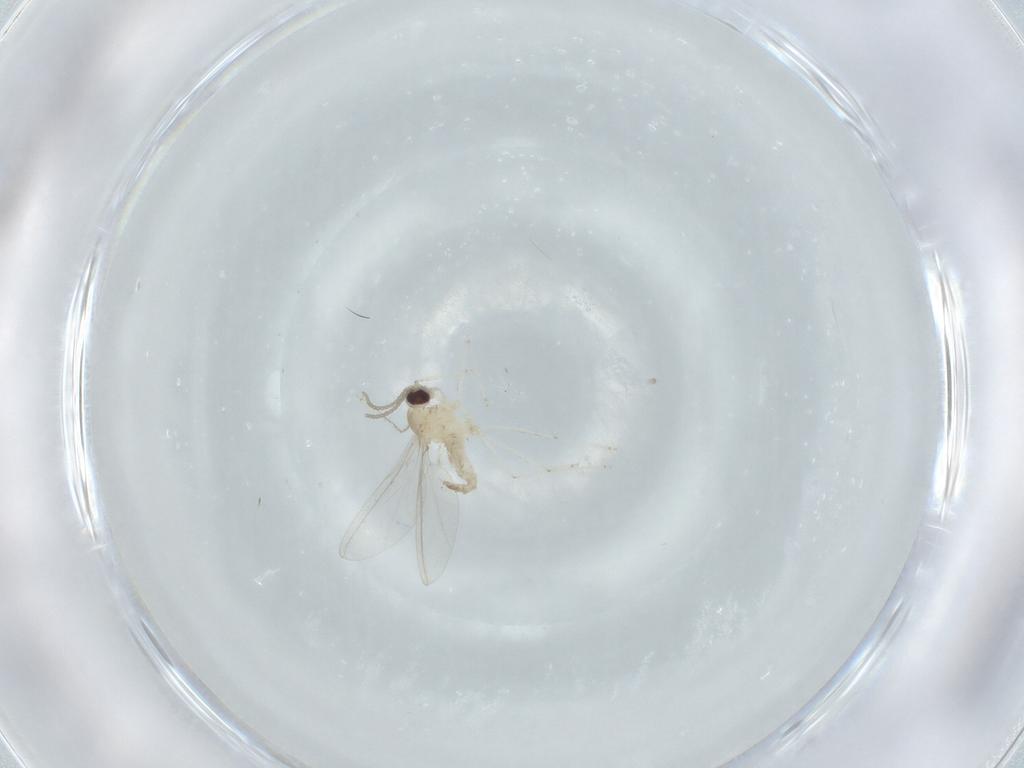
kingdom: Animalia
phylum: Arthropoda
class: Insecta
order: Diptera
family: Cecidomyiidae
